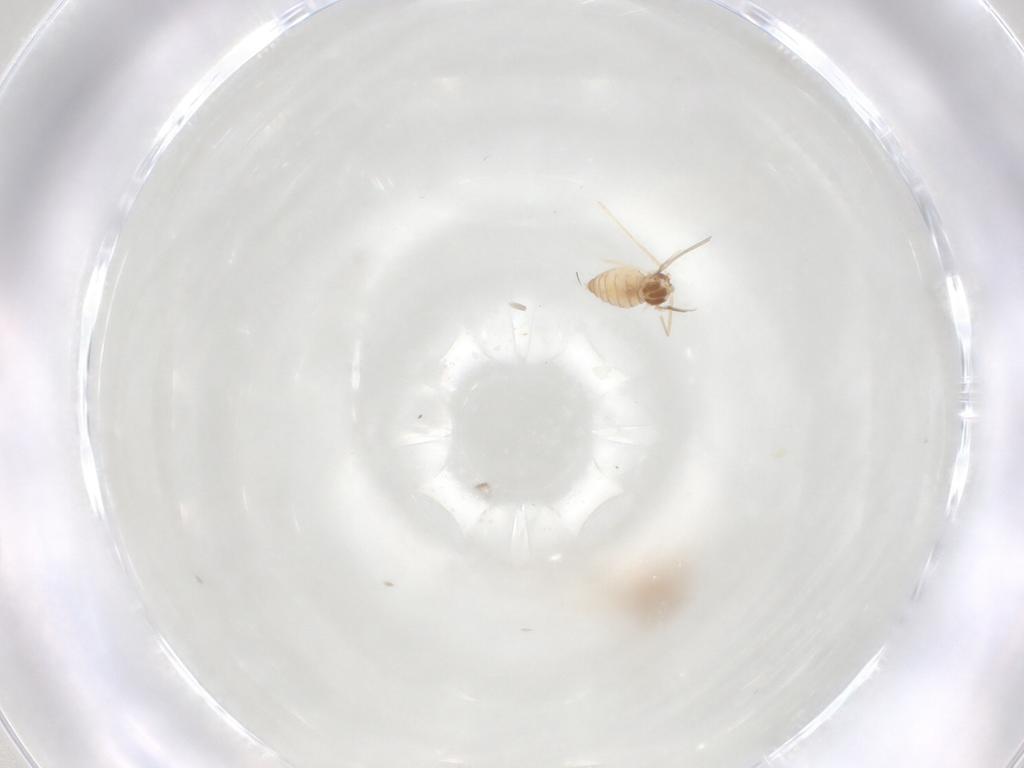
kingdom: Animalia
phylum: Arthropoda
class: Insecta
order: Diptera
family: Cecidomyiidae
